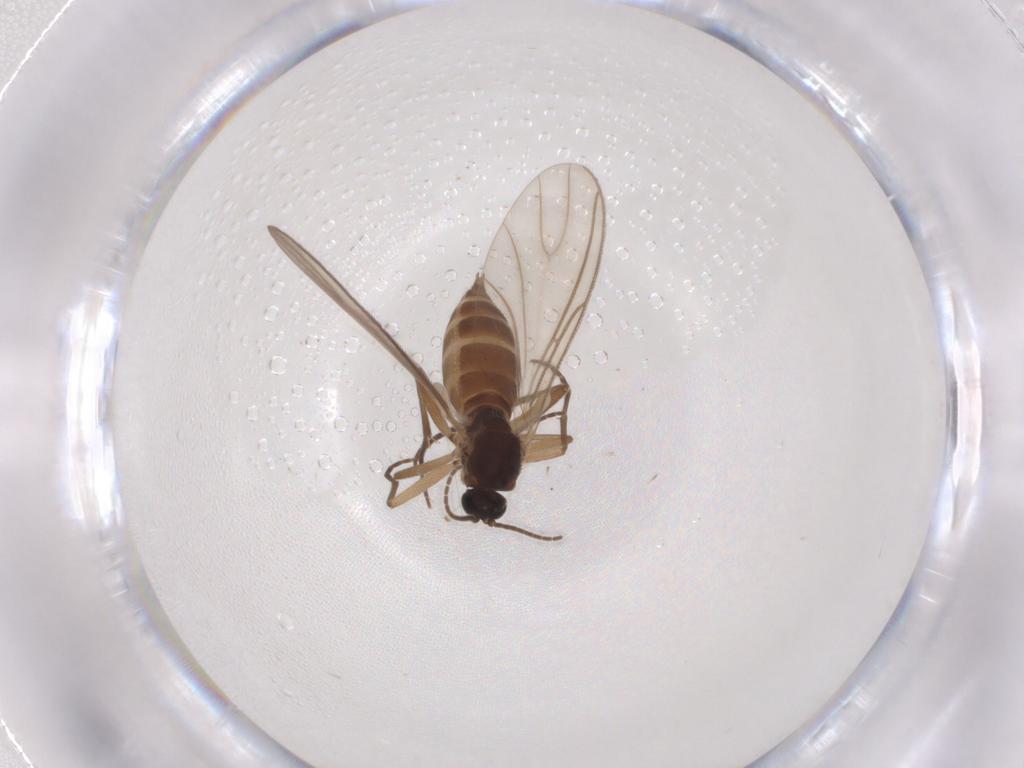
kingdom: Animalia
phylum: Arthropoda
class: Insecta
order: Diptera
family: Sciaridae
